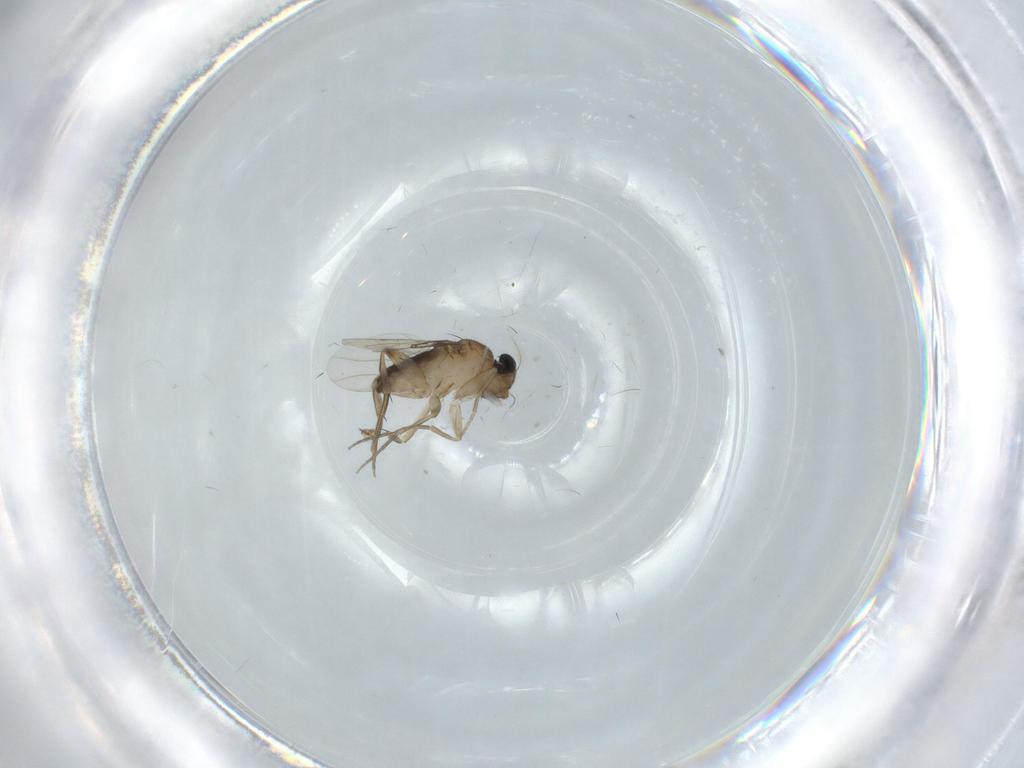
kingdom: Animalia
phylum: Arthropoda
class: Insecta
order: Diptera
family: Phoridae
